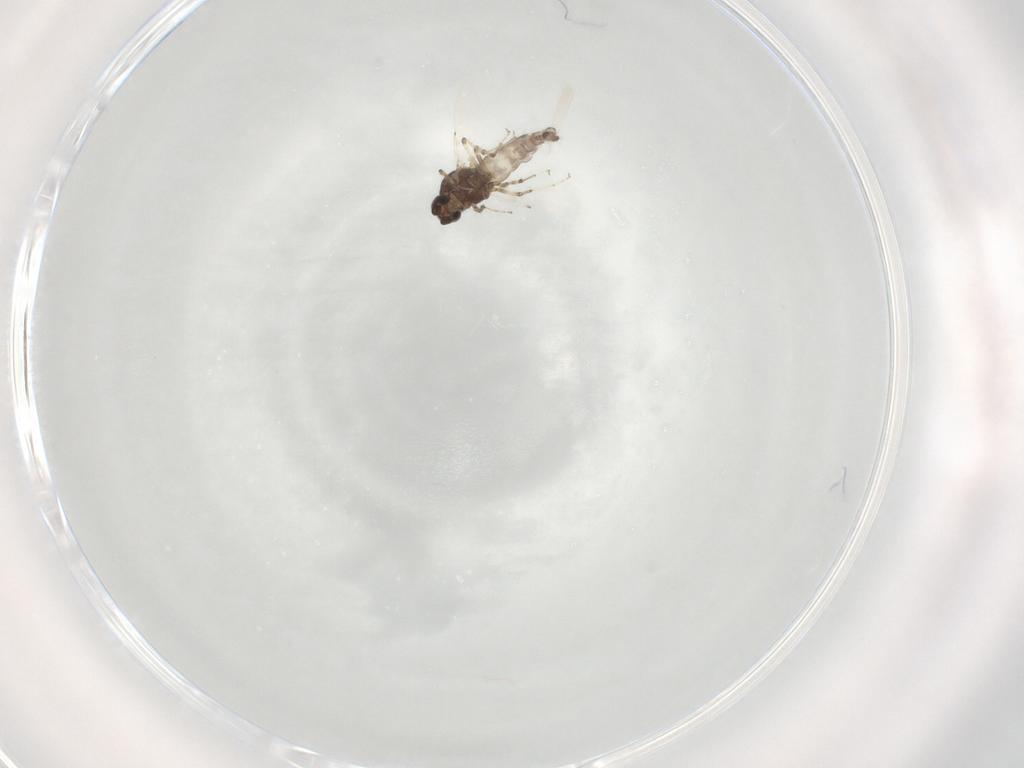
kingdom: Animalia
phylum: Arthropoda
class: Insecta
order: Diptera
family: Ceratopogonidae
